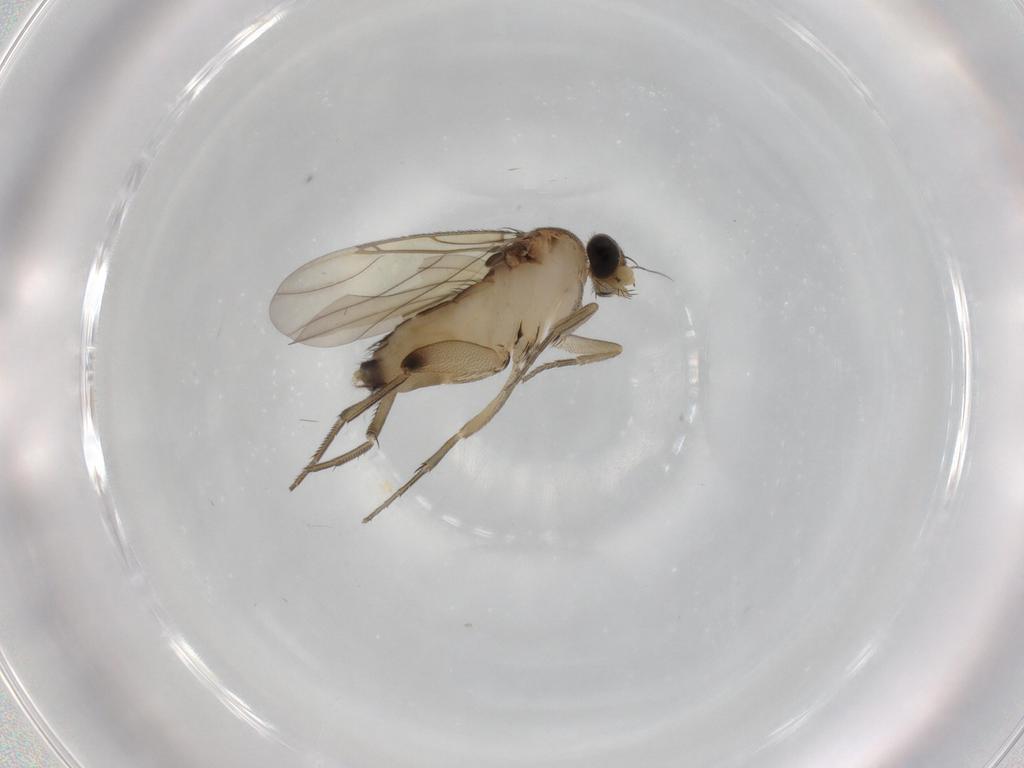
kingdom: Animalia
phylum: Arthropoda
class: Insecta
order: Diptera
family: Phoridae
